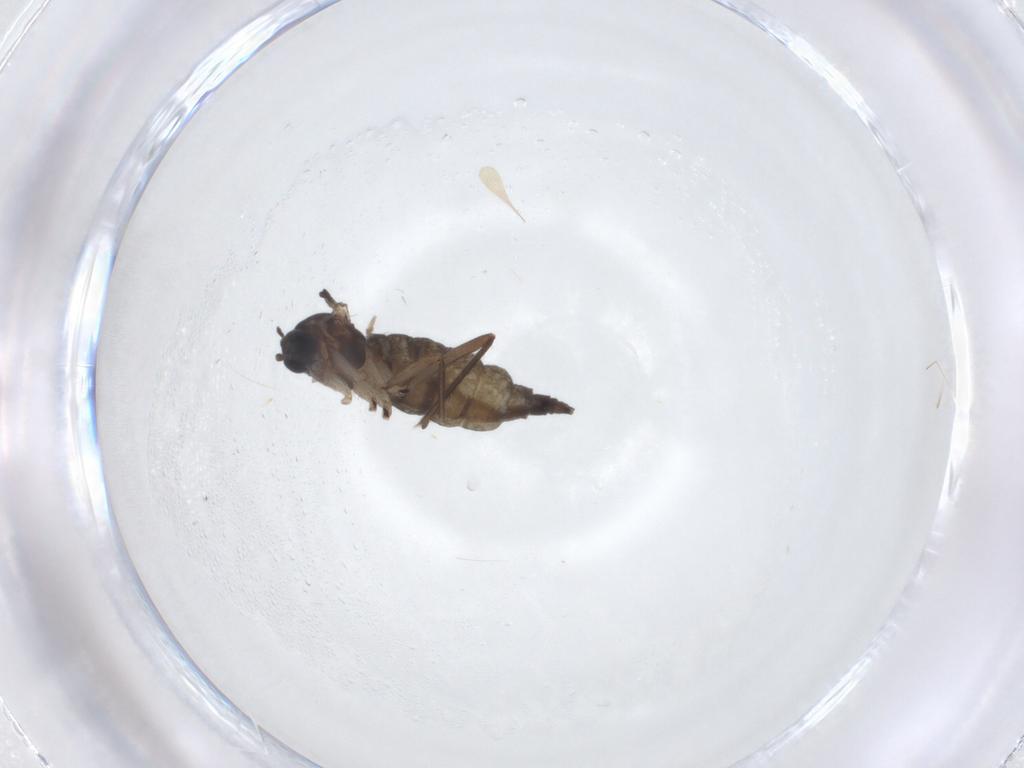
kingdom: Animalia
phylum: Arthropoda
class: Insecta
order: Diptera
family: Sciaridae
